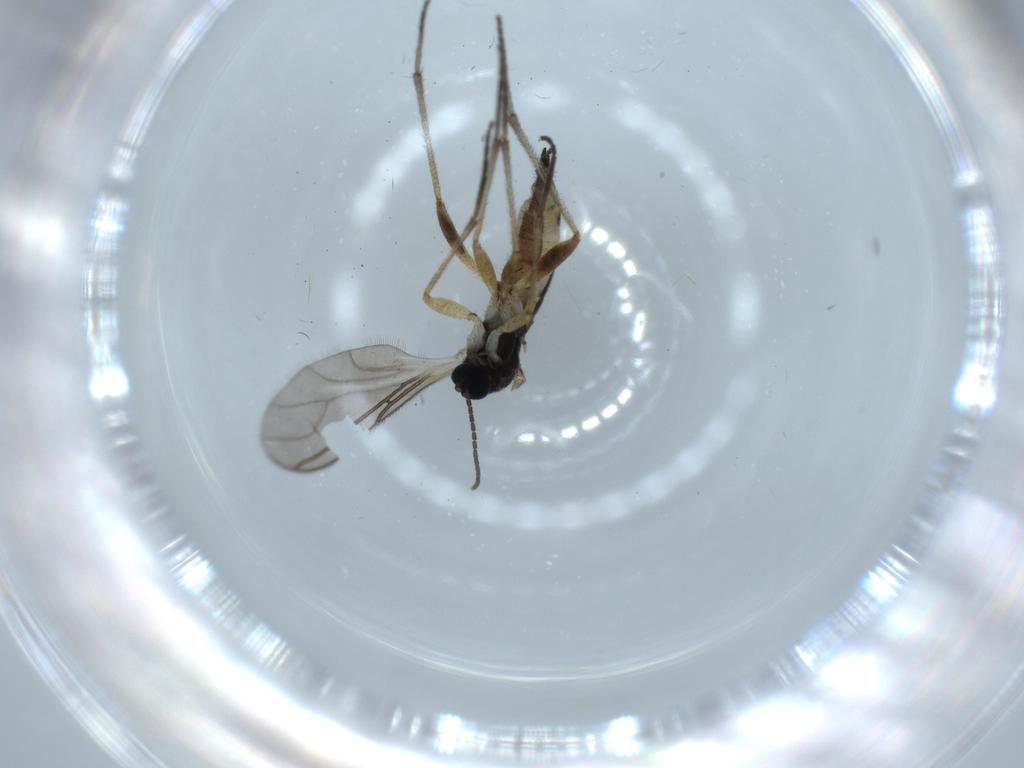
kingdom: Animalia
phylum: Arthropoda
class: Insecta
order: Diptera
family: Sciaridae
